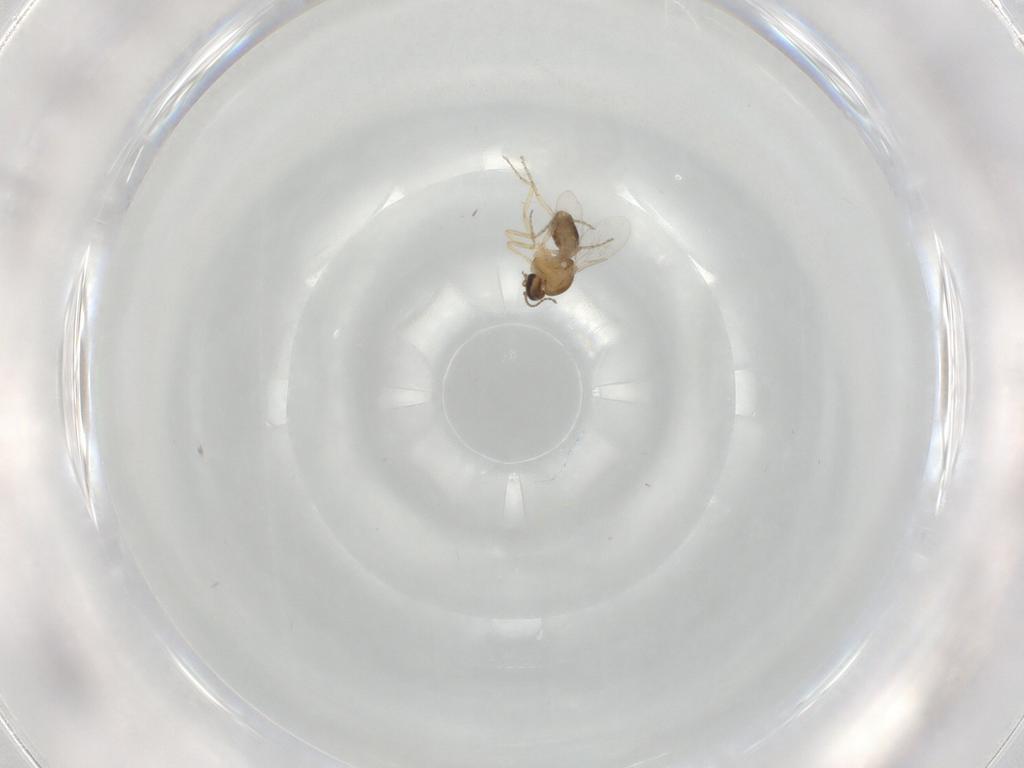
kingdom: Animalia
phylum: Arthropoda
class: Insecta
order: Diptera
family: Ceratopogonidae
